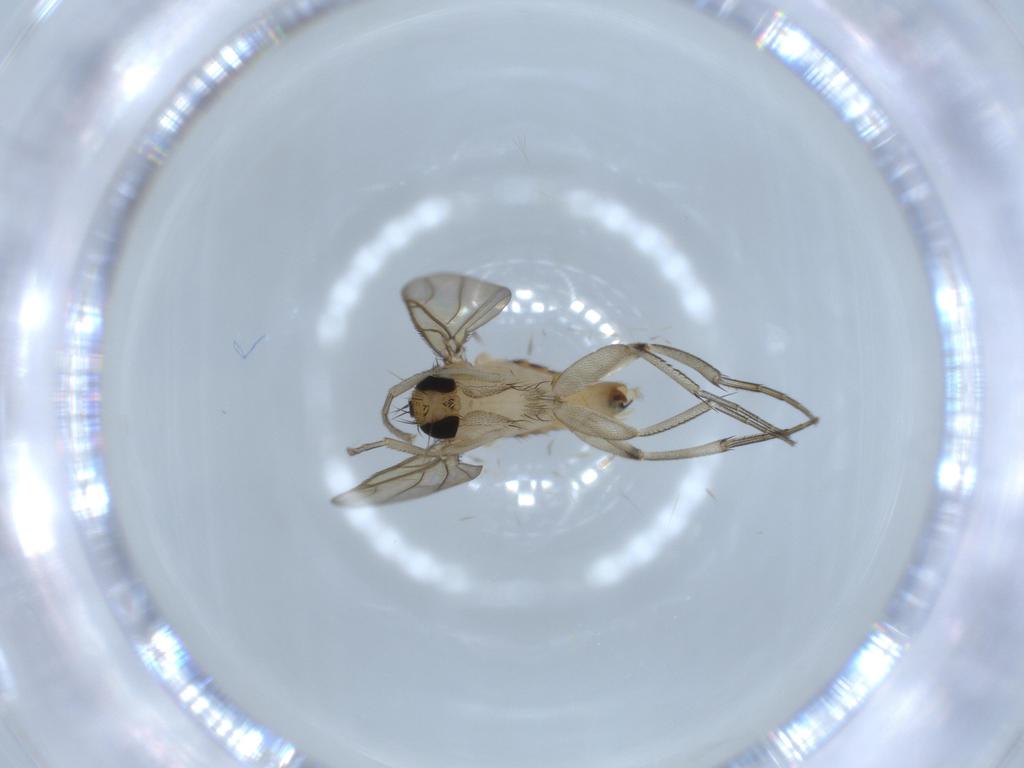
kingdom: Animalia
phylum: Arthropoda
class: Insecta
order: Diptera
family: Phoridae
